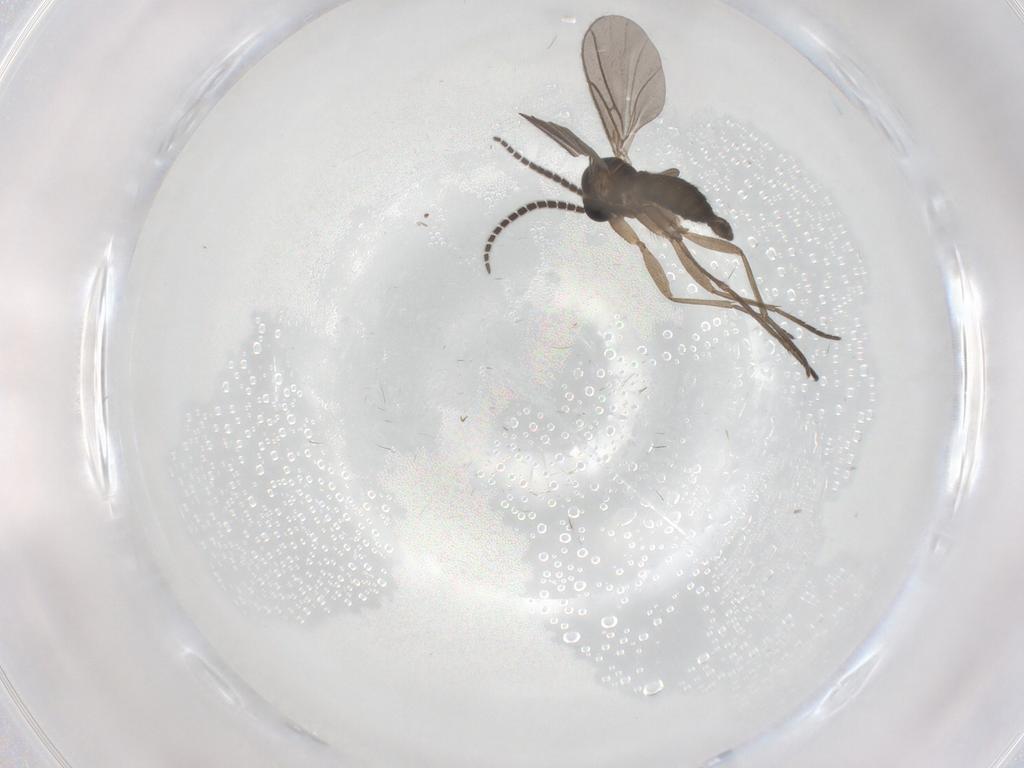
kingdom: Animalia
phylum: Arthropoda
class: Insecta
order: Diptera
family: Sciaridae
